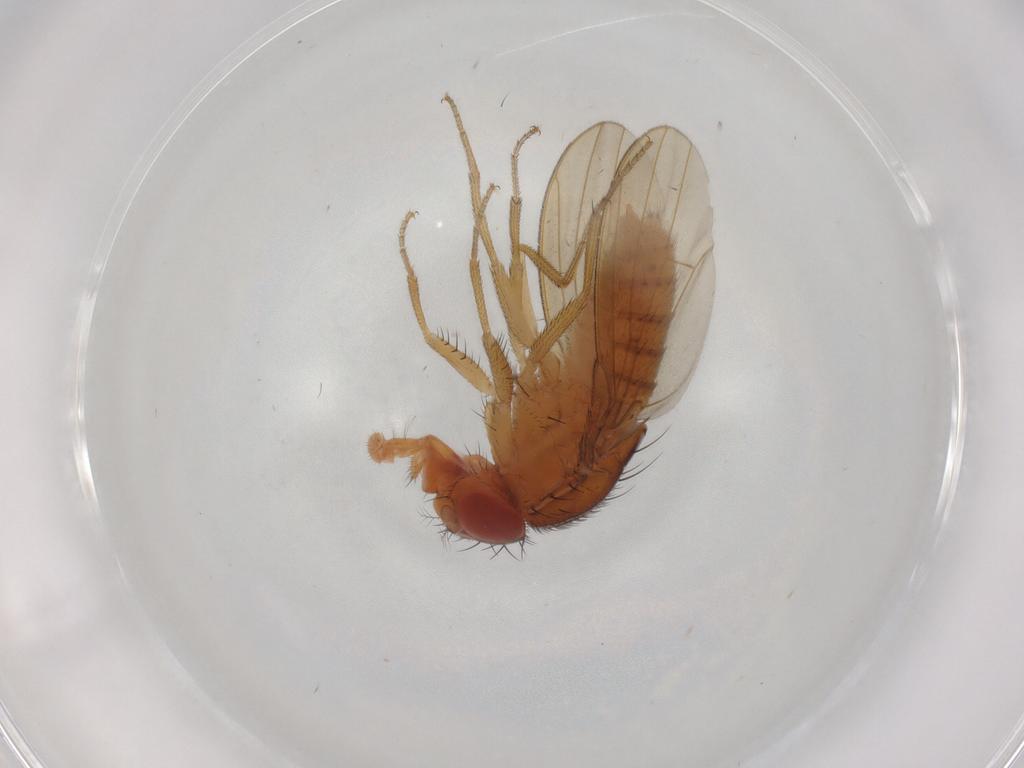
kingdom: Animalia
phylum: Arthropoda
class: Insecta
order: Diptera
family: Drosophilidae
